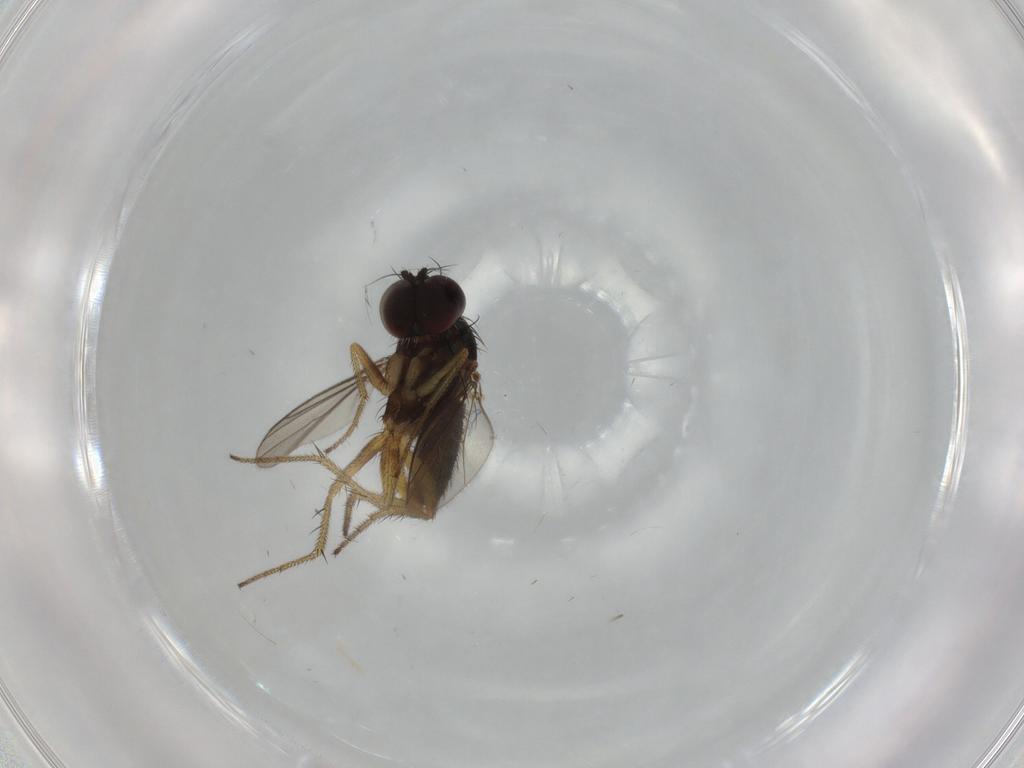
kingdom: Animalia
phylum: Arthropoda
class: Insecta
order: Diptera
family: Dolichopodidae
